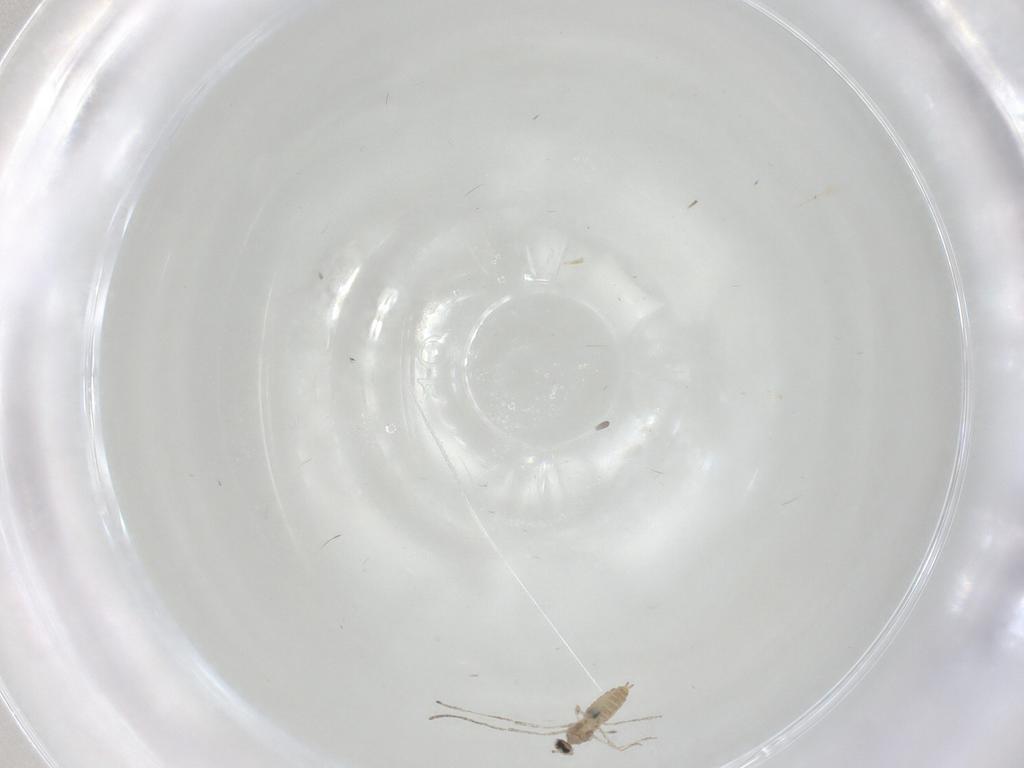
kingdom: Animalia
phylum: Arthropoda
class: Insecta
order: Diptera
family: Cecidomyiidae
